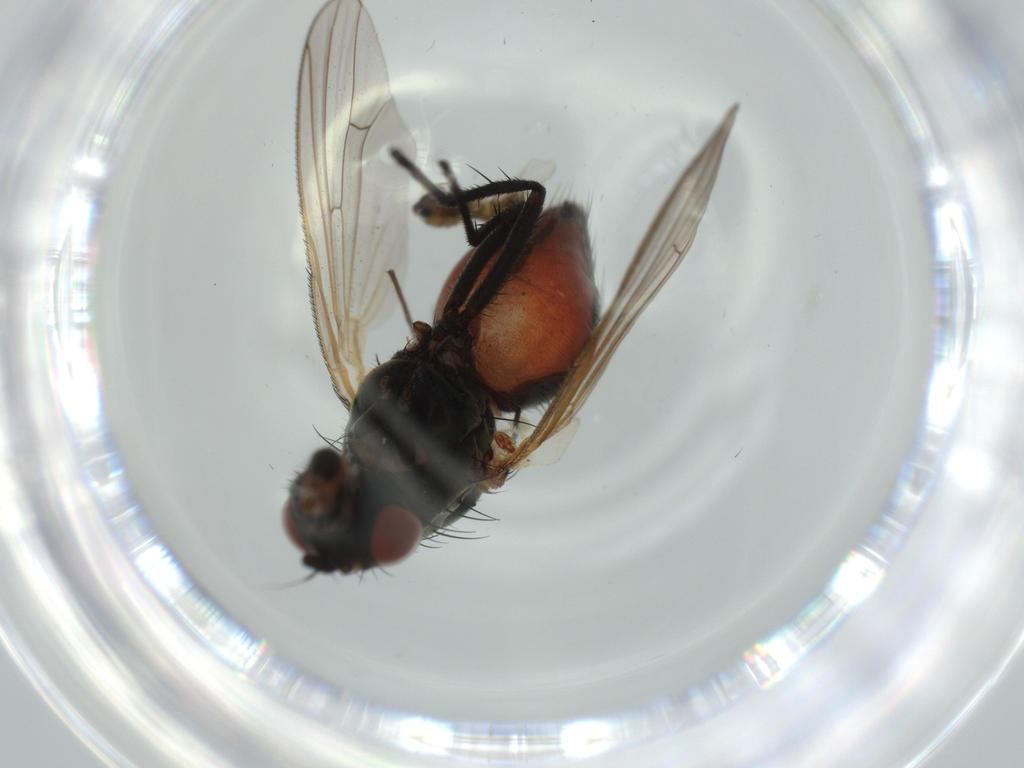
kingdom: Animalia
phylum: Arthropoda
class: Insecta
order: Diptera
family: Anthomyiidae
